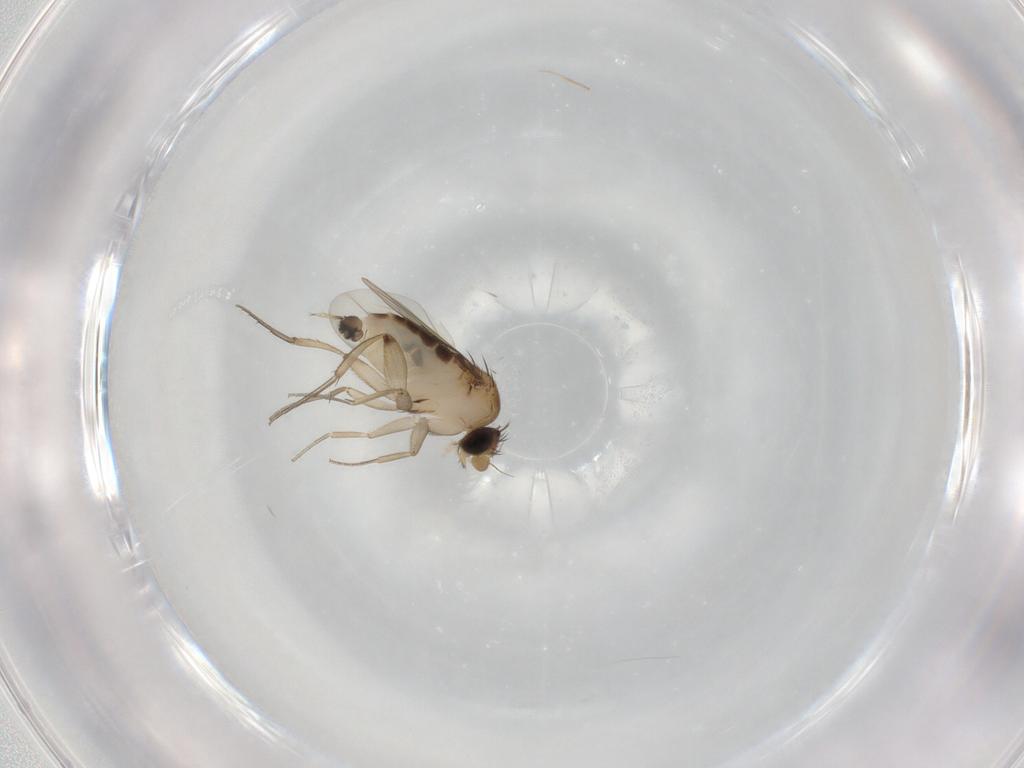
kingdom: Animalia
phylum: Arthropoda
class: Insecta
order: Diptera
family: Phoridae
